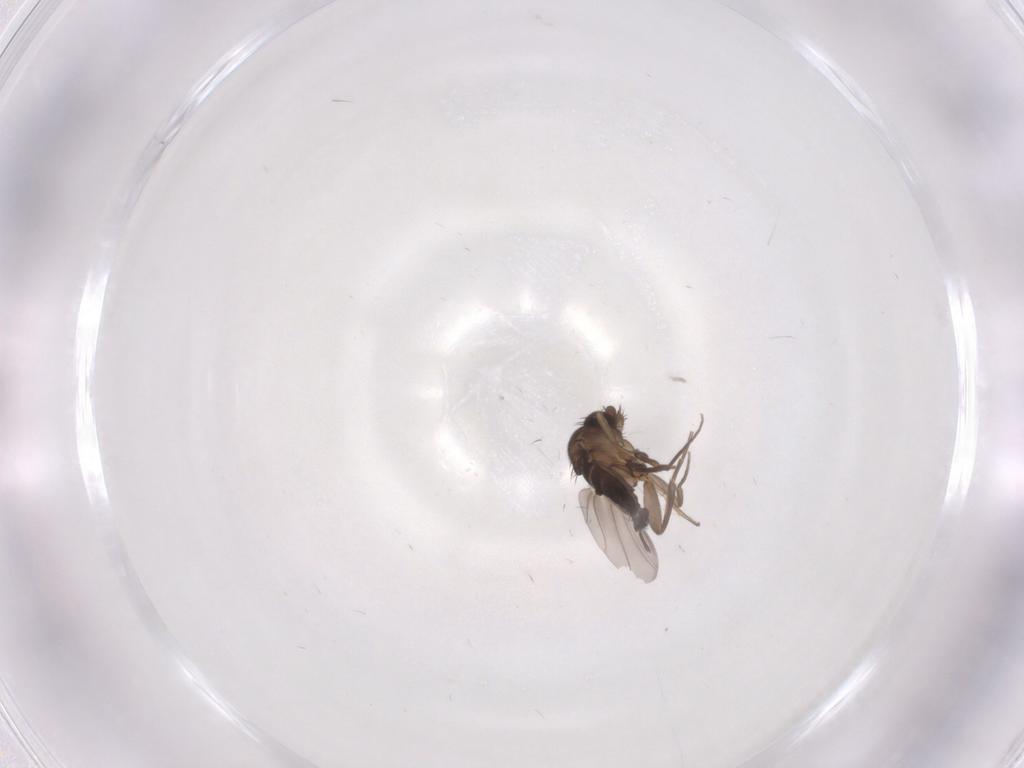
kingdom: Animalia
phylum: Arthropoda
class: Insecta
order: Diptera
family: Phoridae
